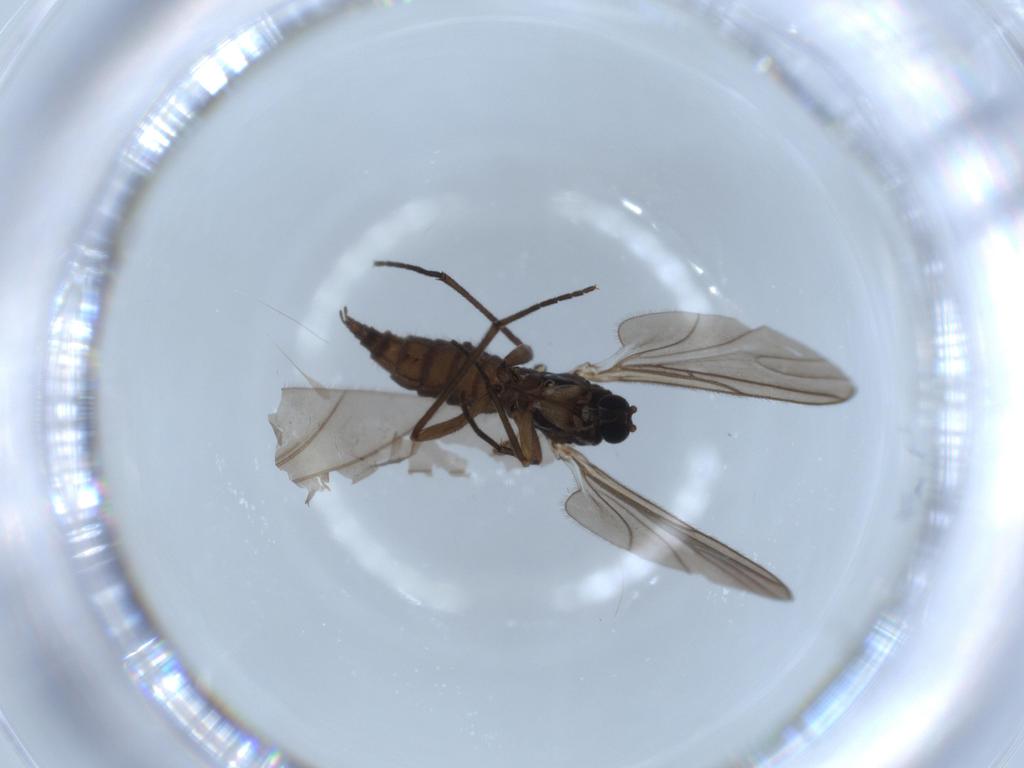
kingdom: Animalia
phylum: Arthropoda
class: Insecta
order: Diptera
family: Sciaridae
